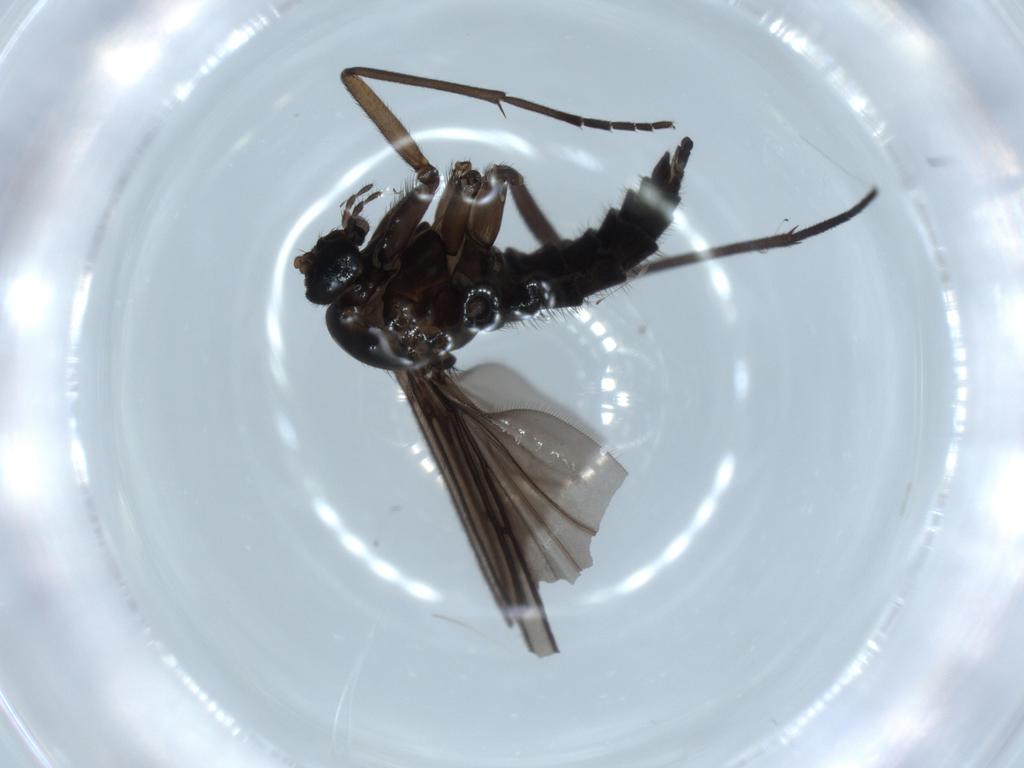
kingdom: Animalia
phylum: Arthropoda
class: Insecta
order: Diptera
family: Sciaridae
